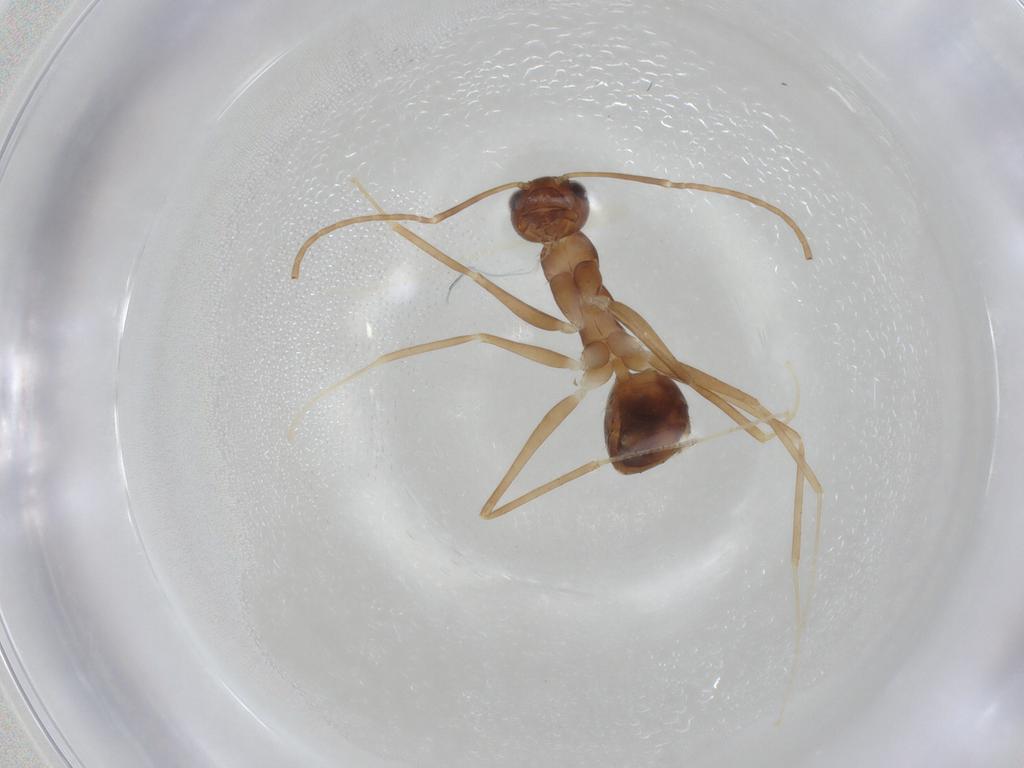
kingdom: Animalia
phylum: Arthropoda
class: Insecta
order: Hymenoptera
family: Formicidae
